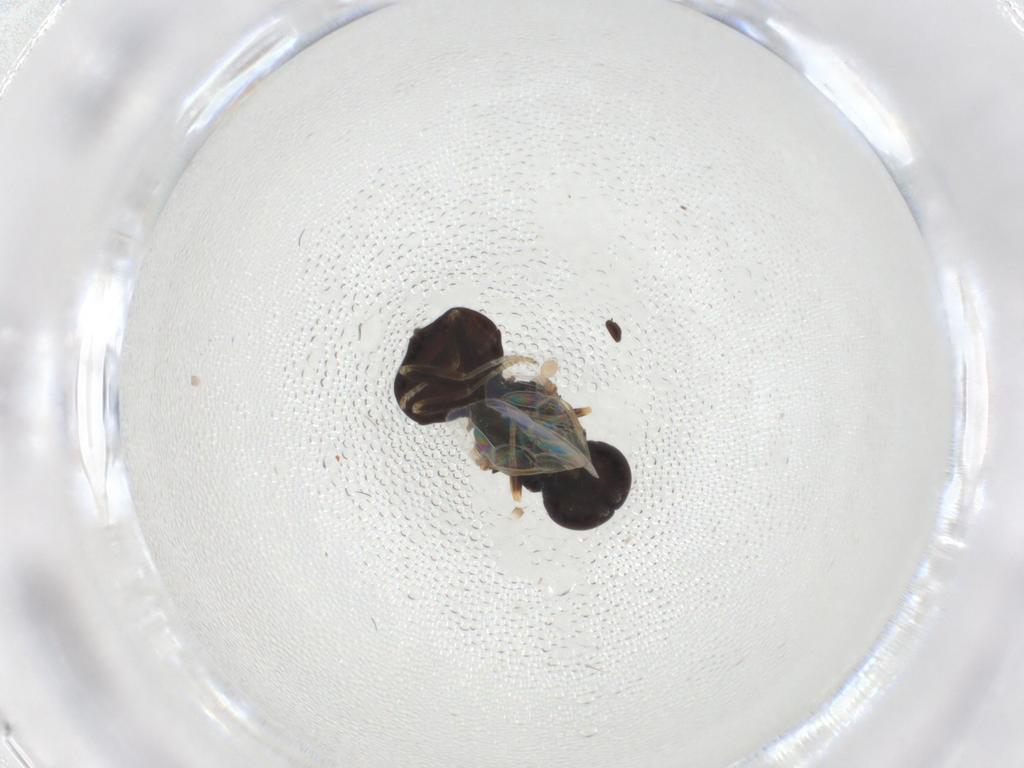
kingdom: Animalia
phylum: Arthropoda
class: Insecta
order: Diptera
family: Stratiomyidae
